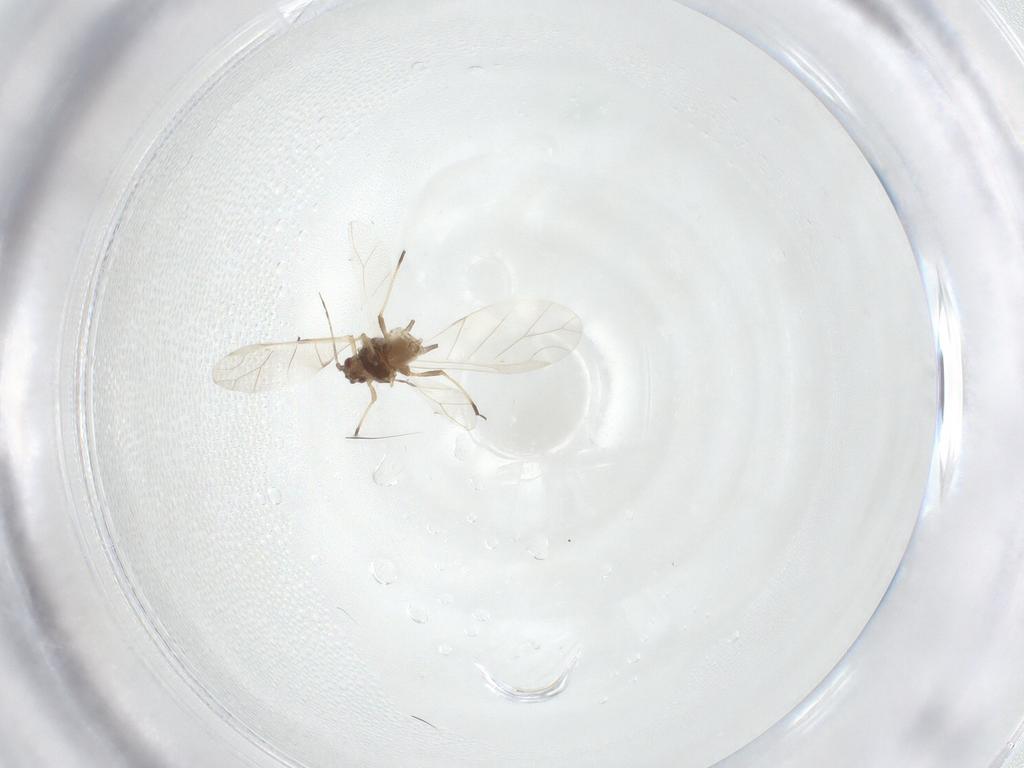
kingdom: Animalia
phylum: Arthropoda
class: Insecta
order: Hemiptera
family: Aphididae
